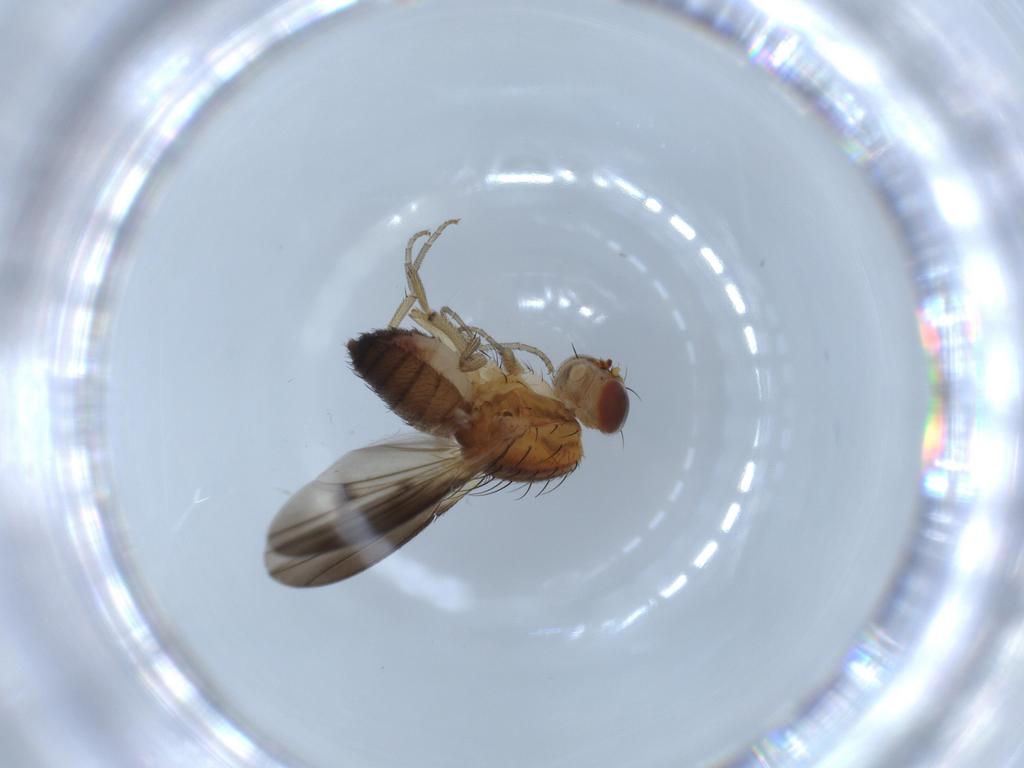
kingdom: Animalia
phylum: Arthropoda
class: Insecta
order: Diptera
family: Heleomyzidae
